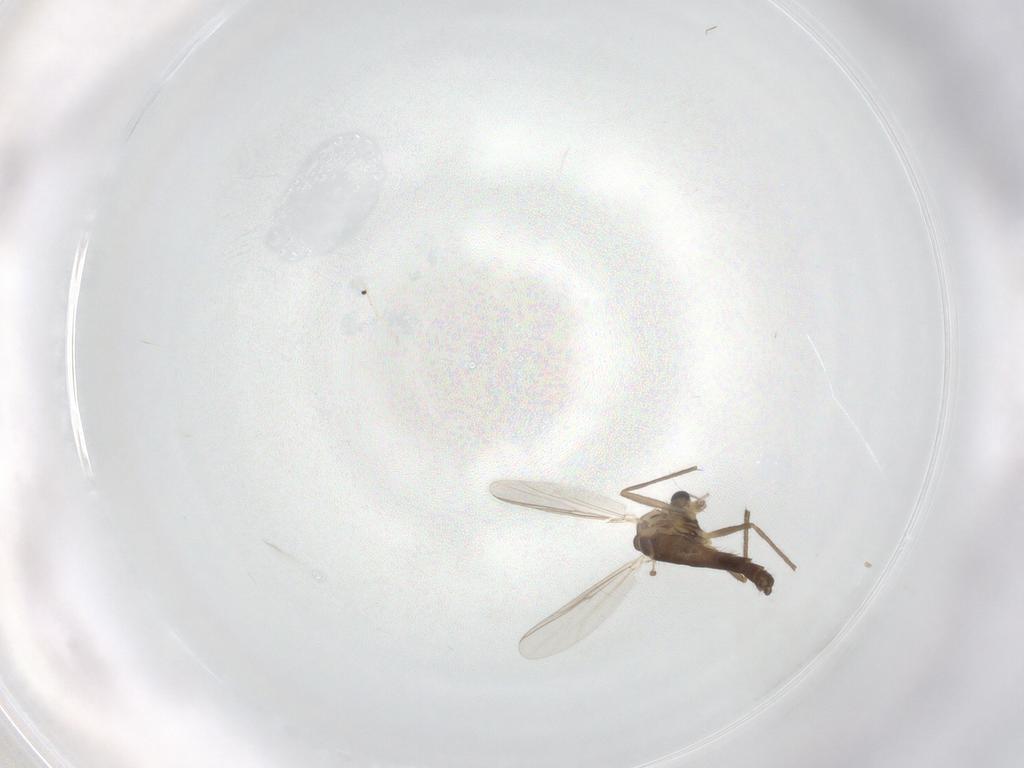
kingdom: Animalia
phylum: Arthropoda
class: Insecta
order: Diptera
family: Chironomidae
